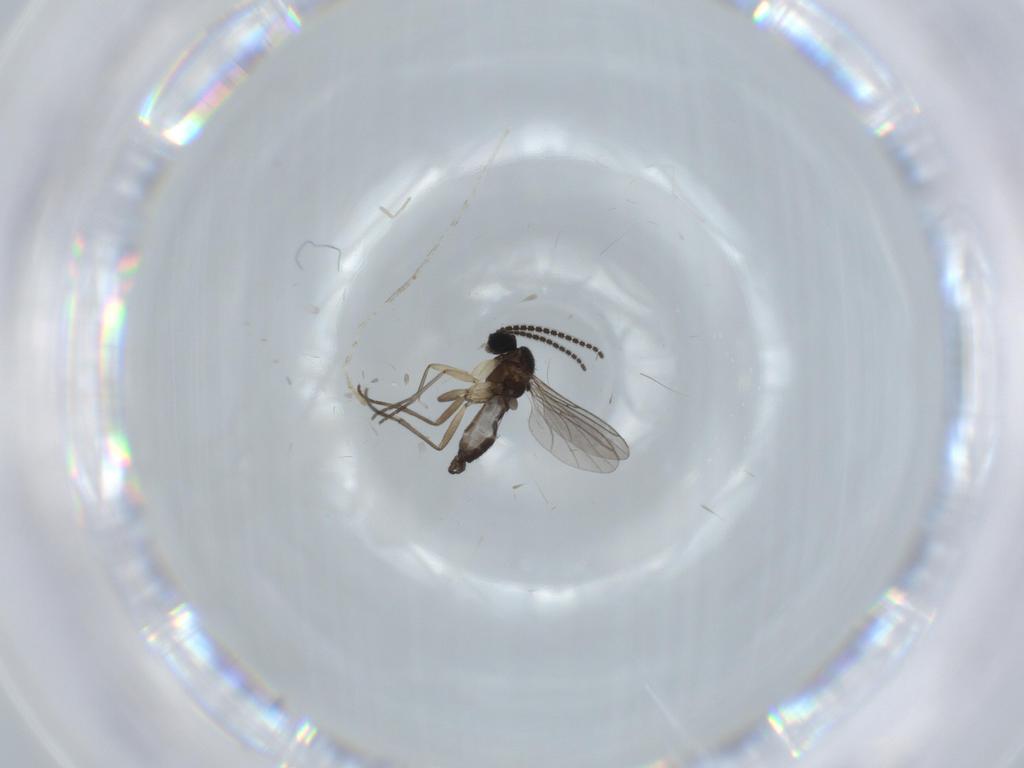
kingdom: Animalia
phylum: Arthropoda
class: Insecta
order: Diptera
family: Sciaridae
